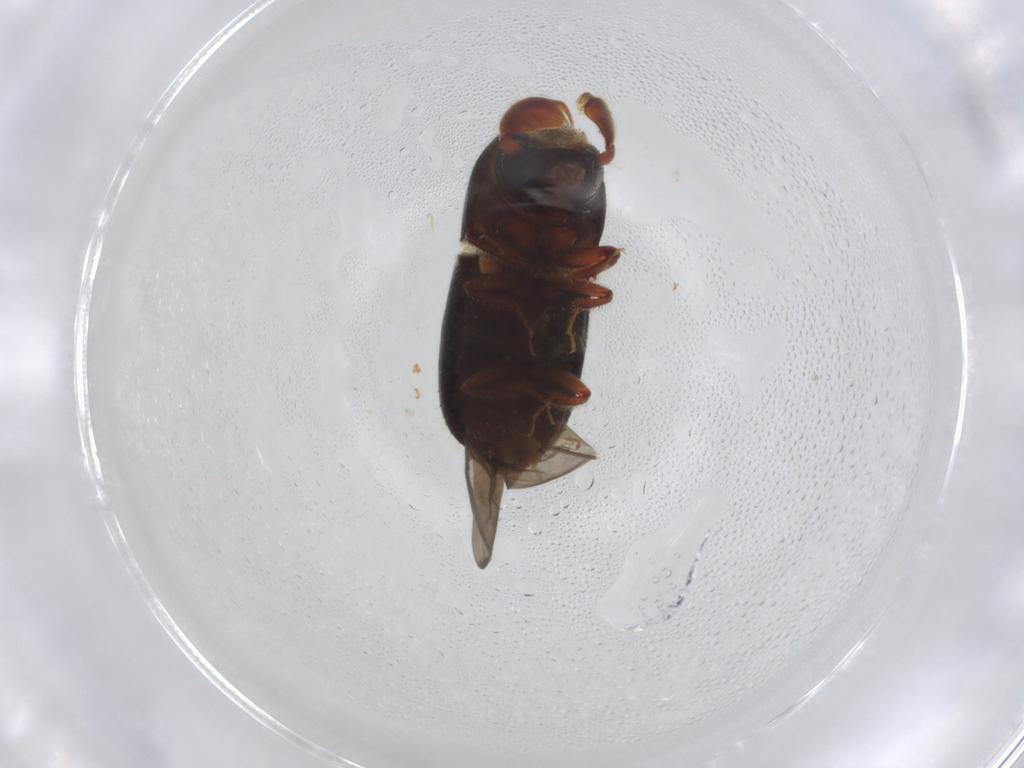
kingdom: Animalia
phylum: Arthropoda
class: Insecta
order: Coleoptera
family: Curculionidae
